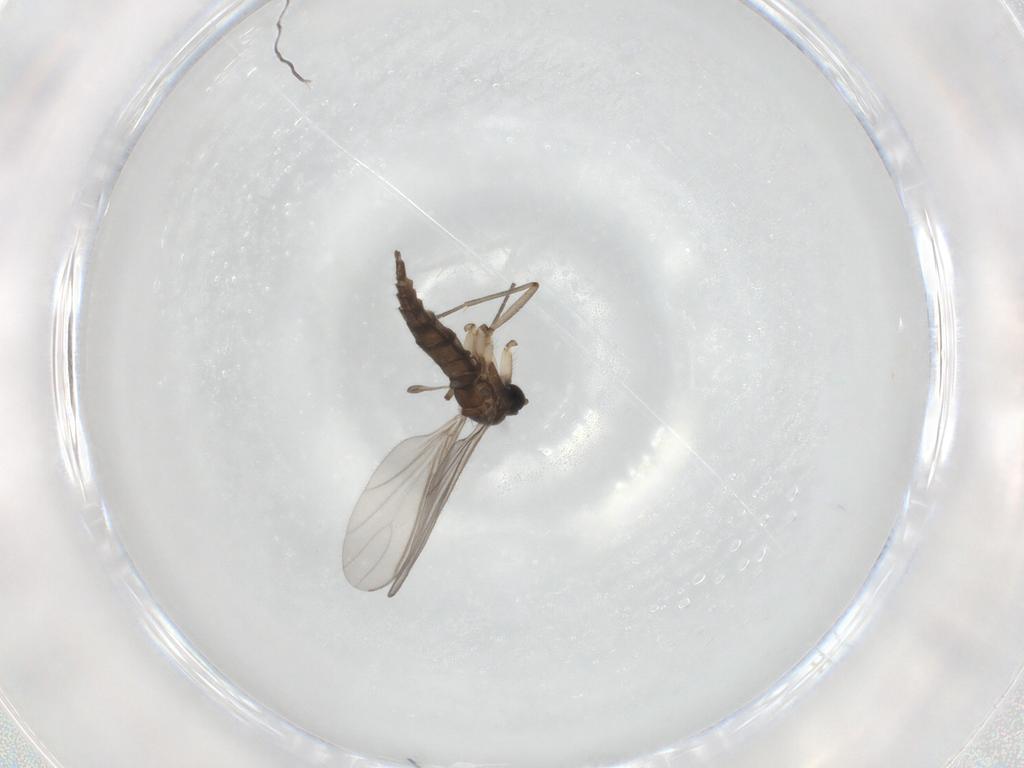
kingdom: Animalia
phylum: Arthropoda
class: Insecta
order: Diptera
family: Sciaridae
